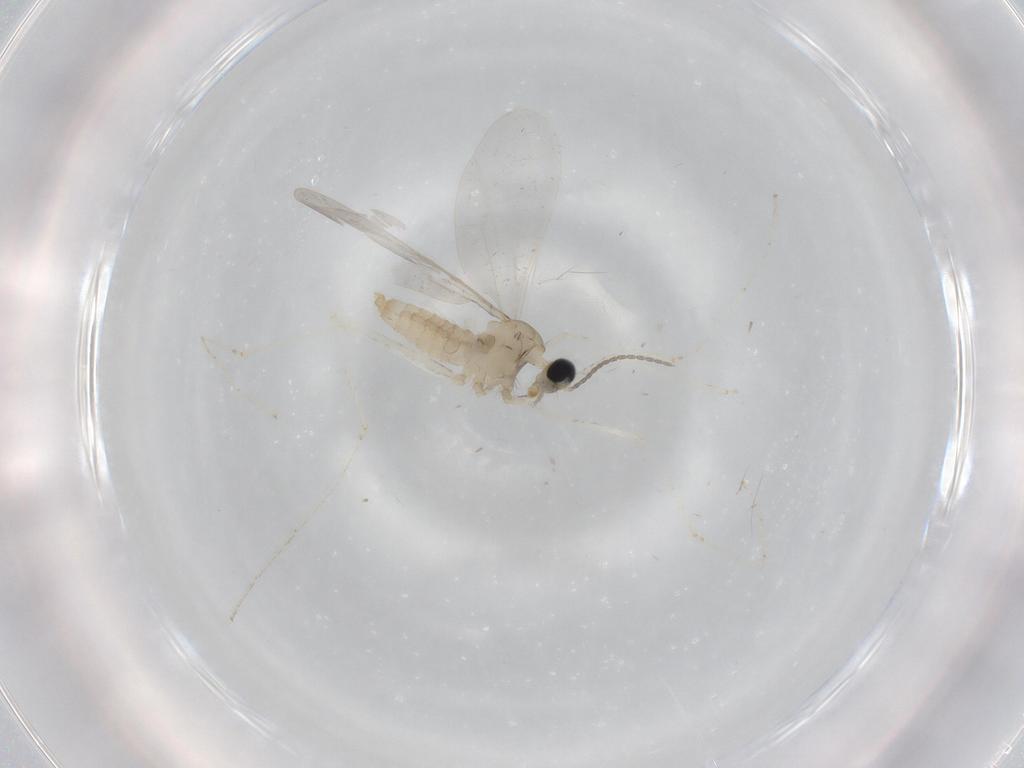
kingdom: Animalia
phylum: Arthropoda
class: Insecta
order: Diptera
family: Cecidomyiidae
